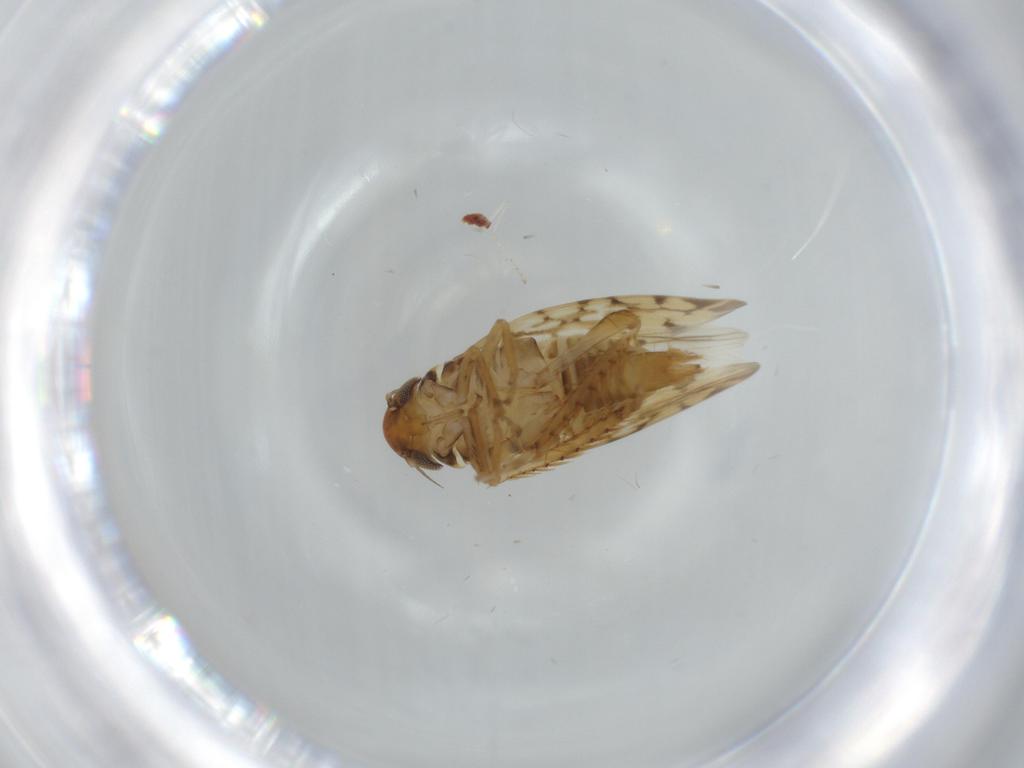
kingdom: Animalia
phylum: Arthropoda
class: Insecta
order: Hemiptera
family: Cicadellidae
